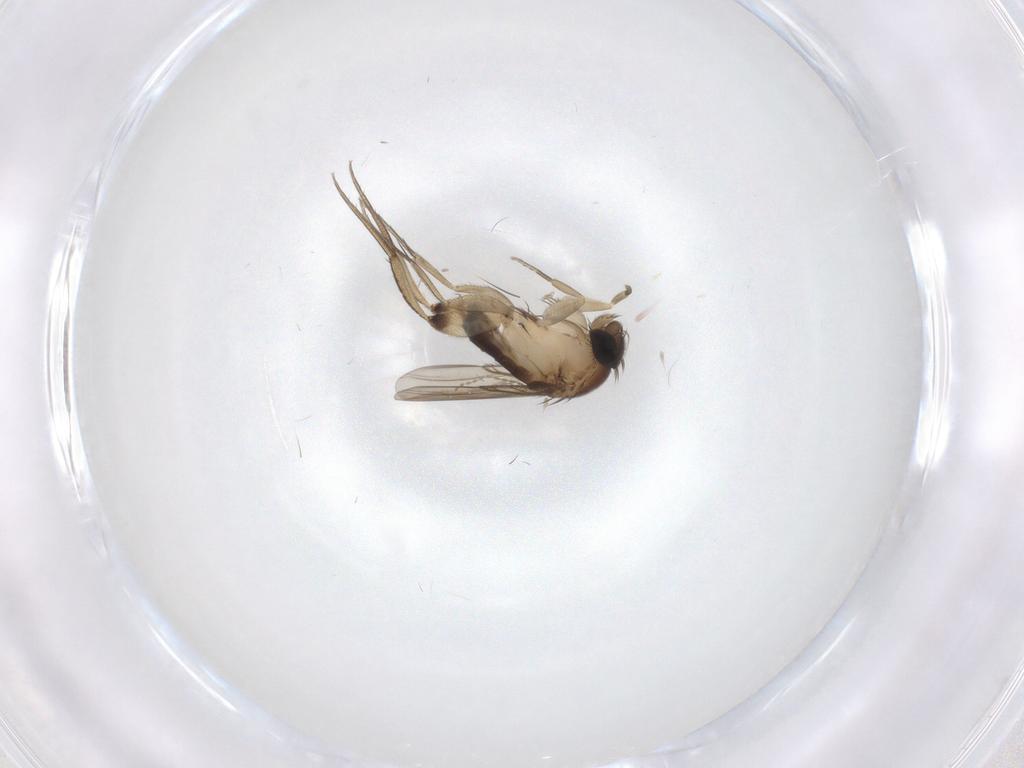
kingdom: Animalia
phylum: Arthropoda
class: Insecta
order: Diptera
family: Phoridae
